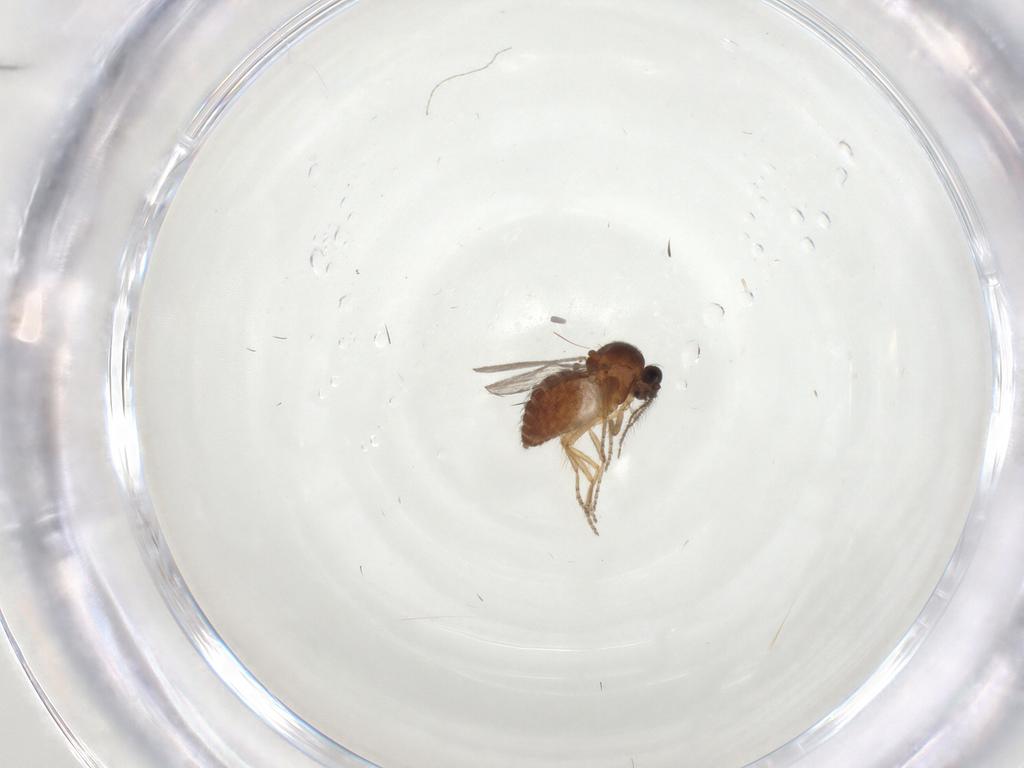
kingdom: Animalia
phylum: Arthropoda
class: Insecta
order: Diptera
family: Ceratopogonidae
